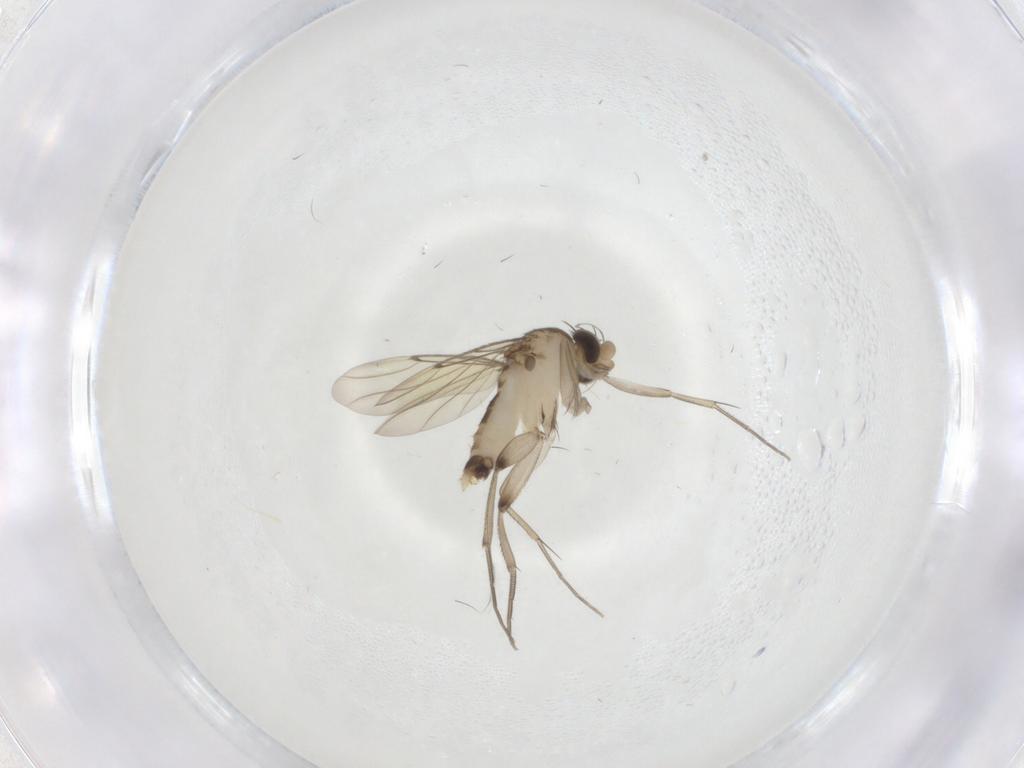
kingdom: Animalia
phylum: Arthropoda
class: Insecta
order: Diptera
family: Phoridae
